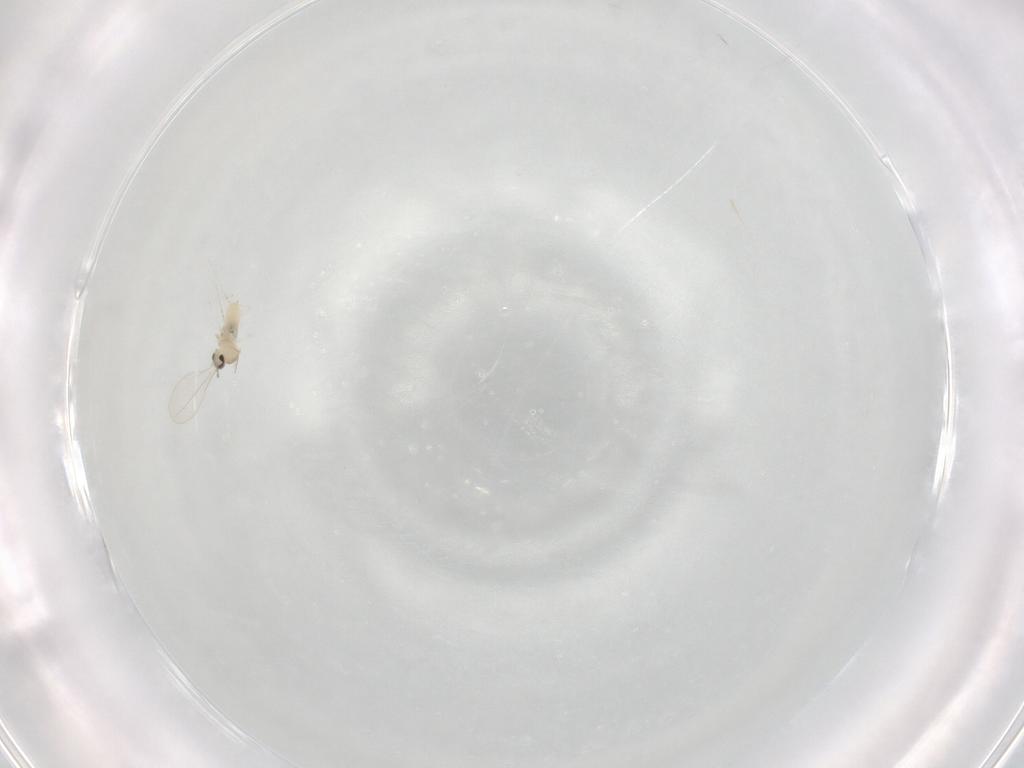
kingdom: Animalia
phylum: Arthropoda
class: Insecta
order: Diptera
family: Cecidomyiidae
